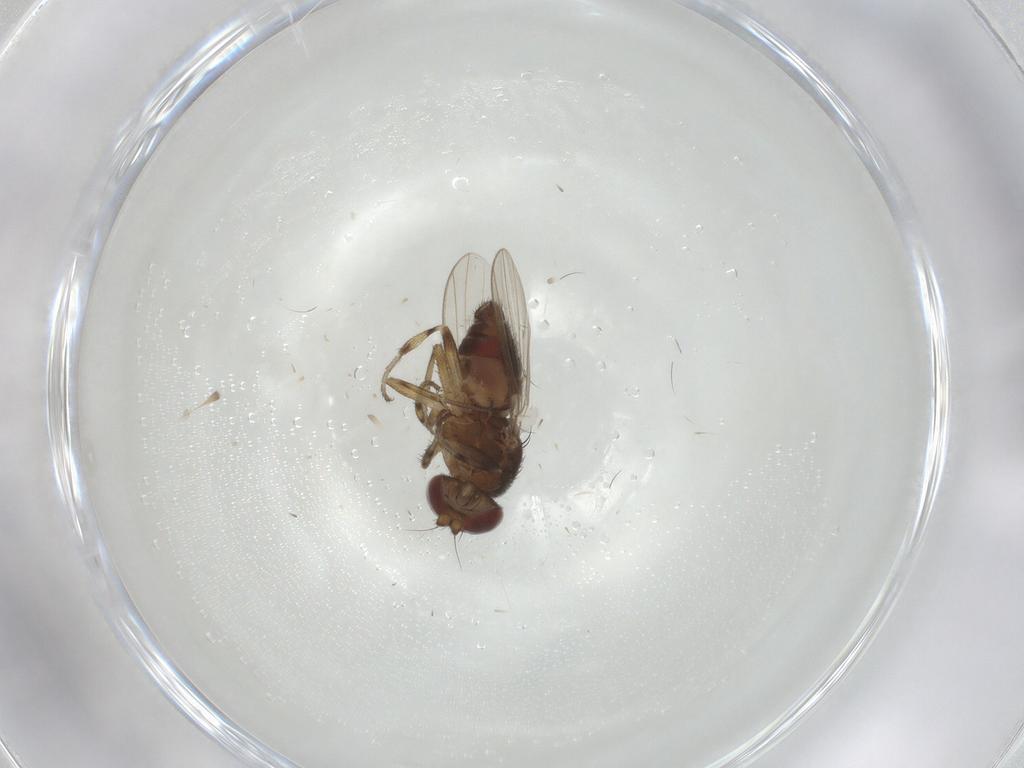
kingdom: Animalia
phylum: Arthropoda
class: Insecta
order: Diptera
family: Heleomyzidae
